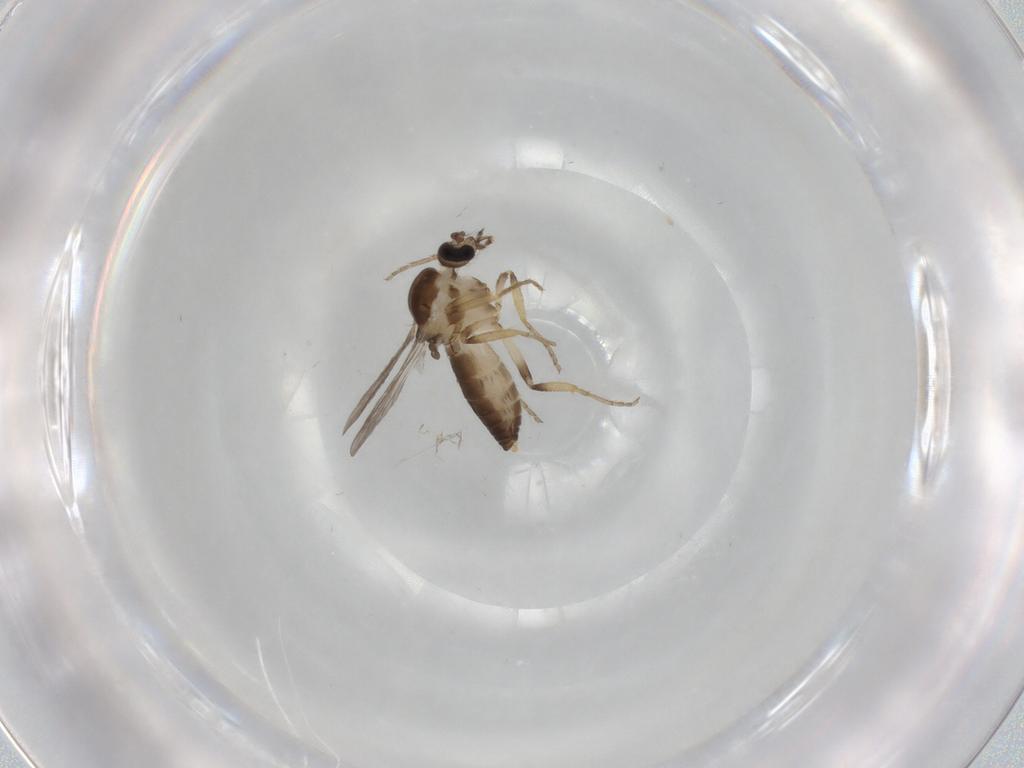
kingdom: Animalia
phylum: Arthropoda
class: Insecta
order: Diptera
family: Ceratopogonidae
